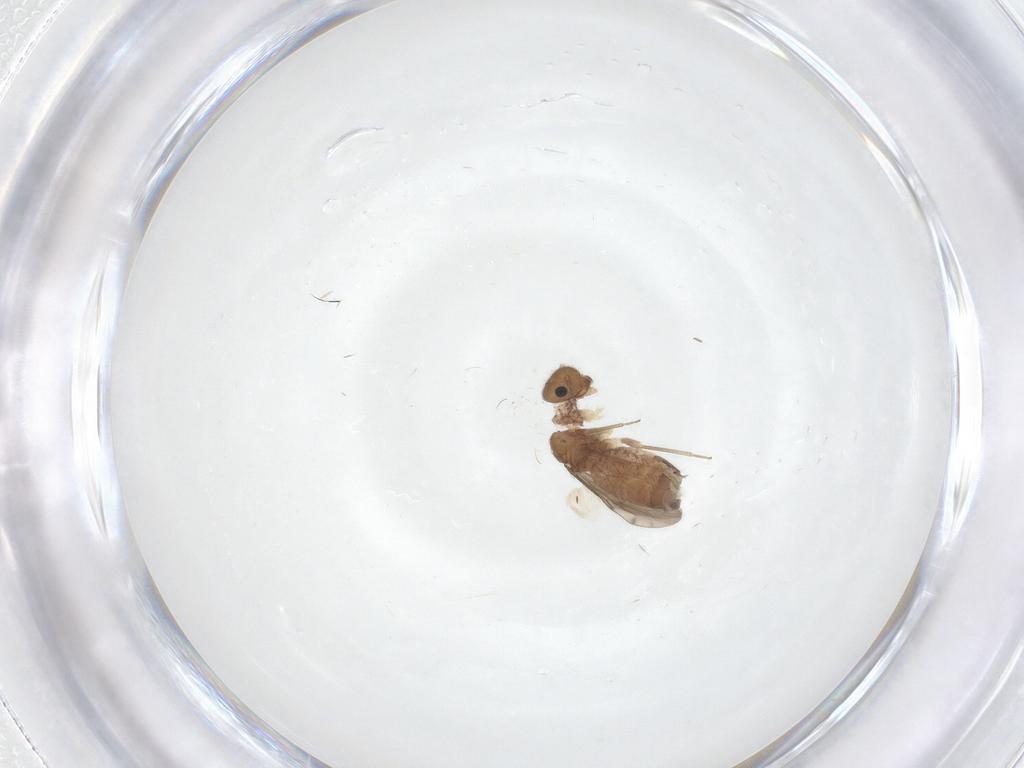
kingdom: Animalia
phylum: Arthropoda
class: Insecta
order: Psocodea
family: Ectopsocidae
